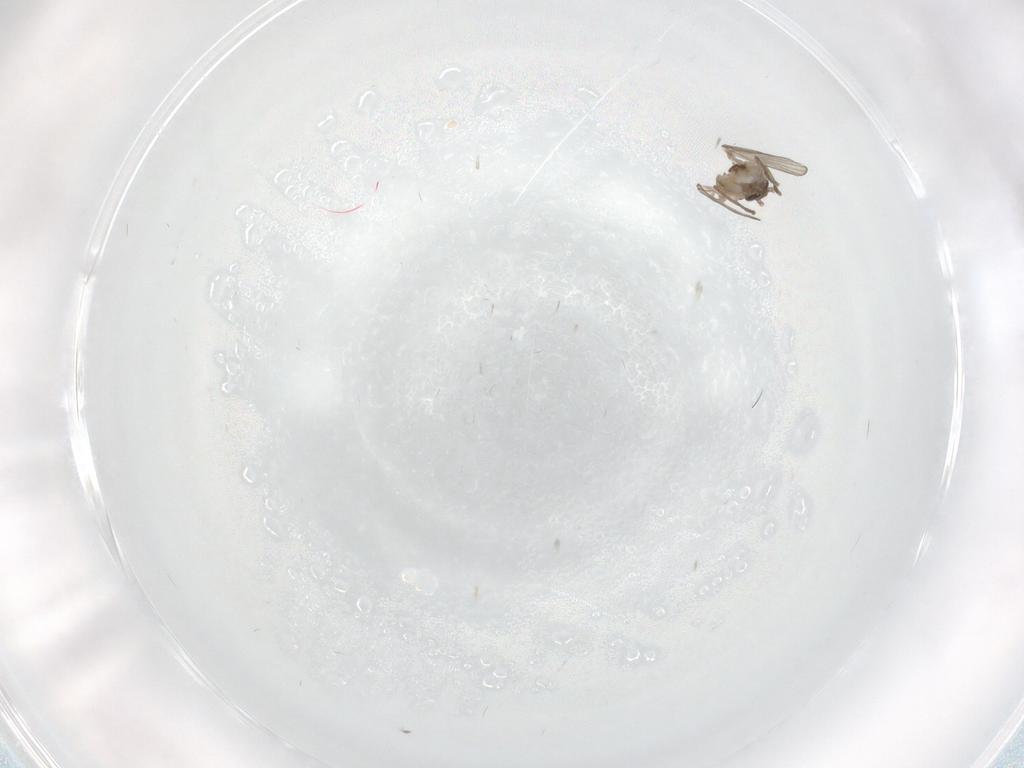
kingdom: Animalia
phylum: Arthropoda
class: Insecta
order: Diptera
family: Psychodidae
